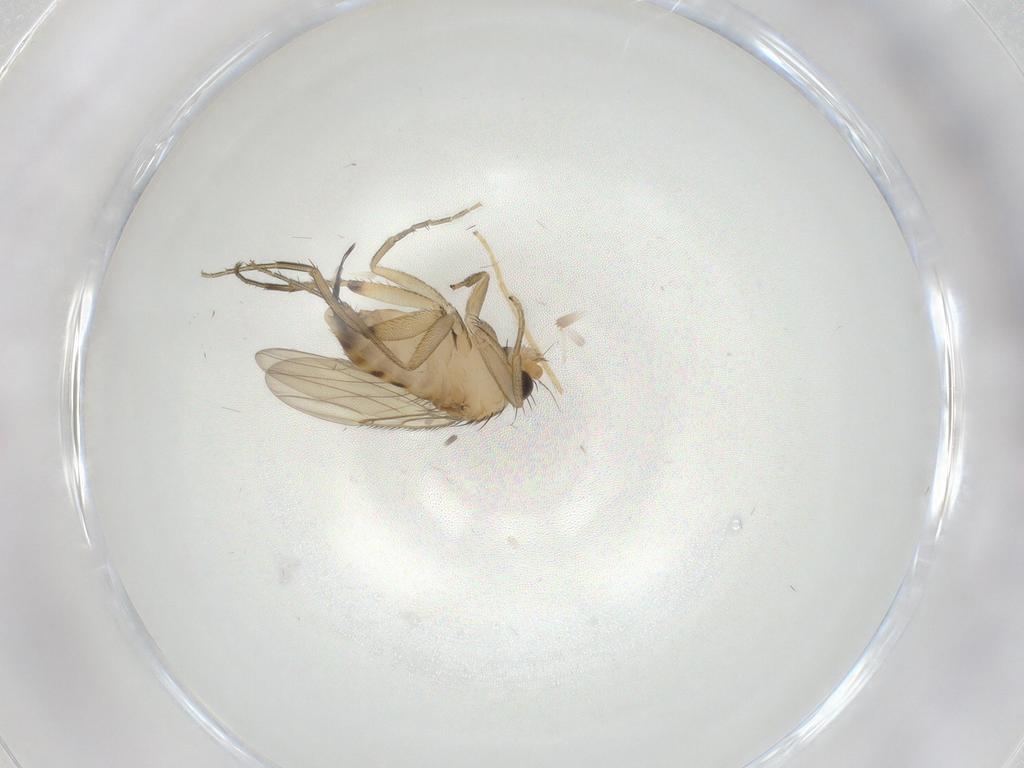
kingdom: Animalia
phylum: Arthropoda
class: Insecta
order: Diptera
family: Phoridae
